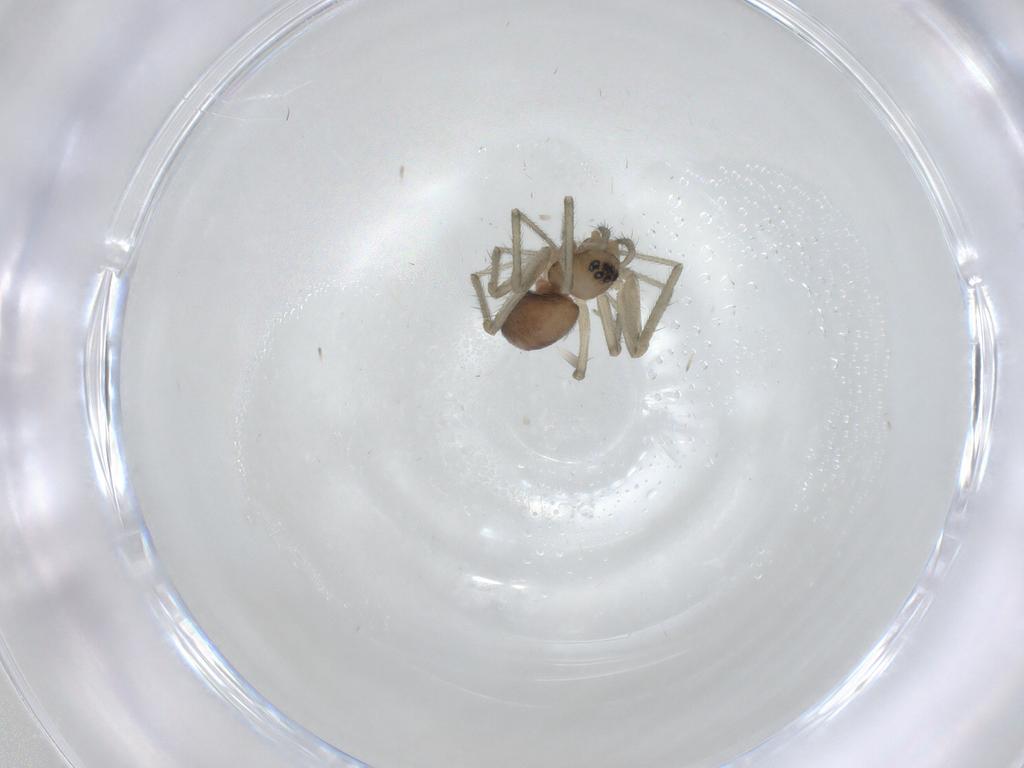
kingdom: Animalia
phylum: Arthropoda
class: Arachnida
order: Araneae
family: Linyphiidae
